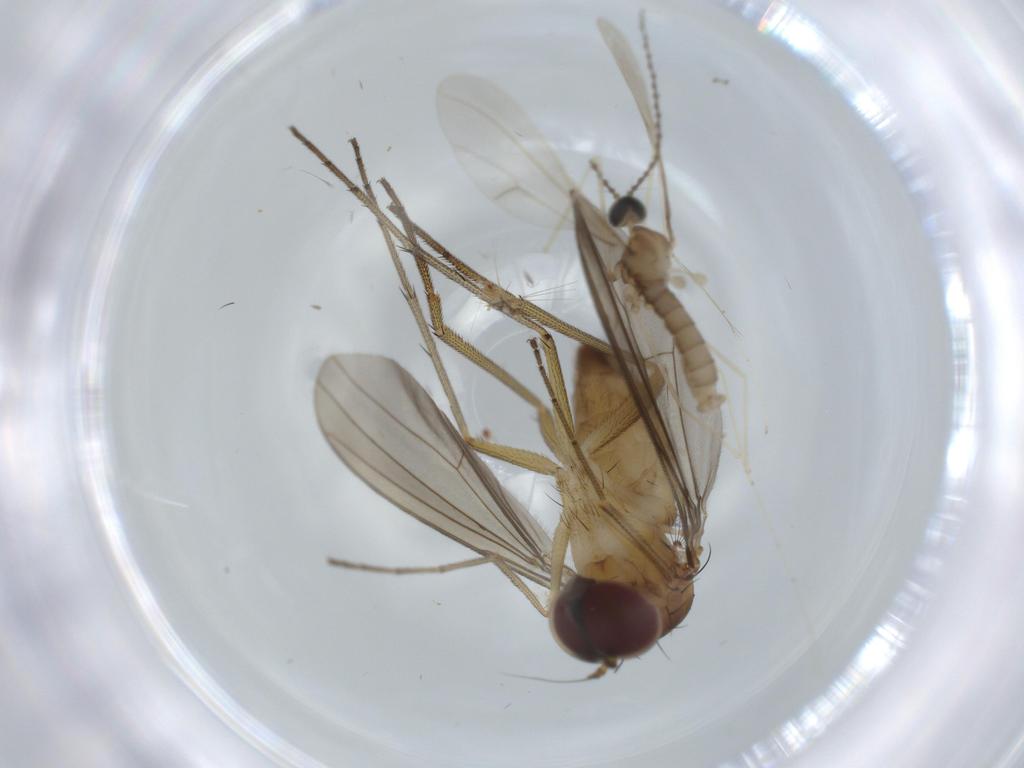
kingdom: Animalia
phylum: Arthropoda
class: Insecta
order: Diptera
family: Cecidomyiidae
